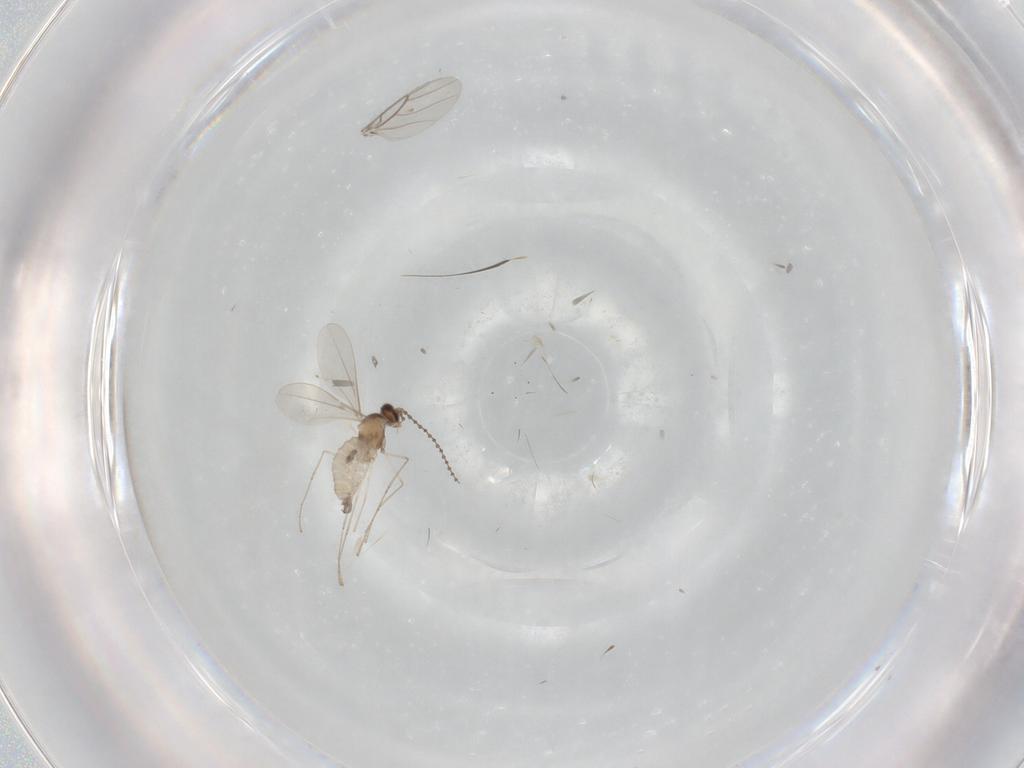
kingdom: Animalia
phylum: Arthropoda
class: Insecta
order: Diptera
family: Cecidomyiidae
